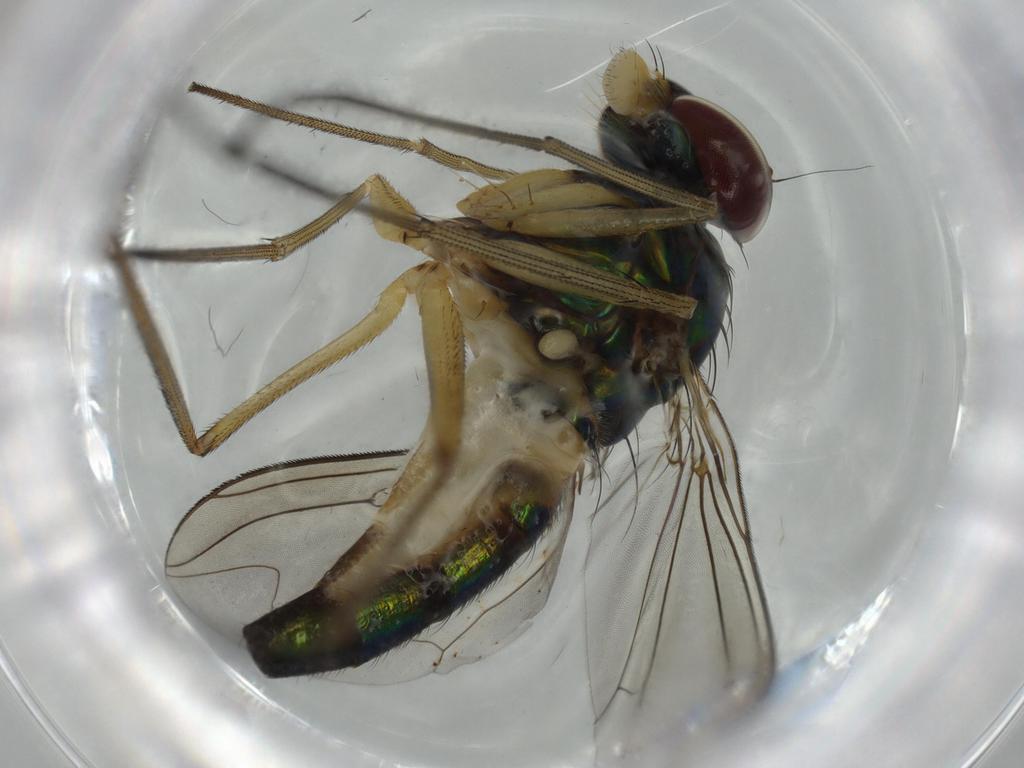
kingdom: Animalia
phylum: Arthropoda
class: Insecta
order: Diptera
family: Dolichopodidae
